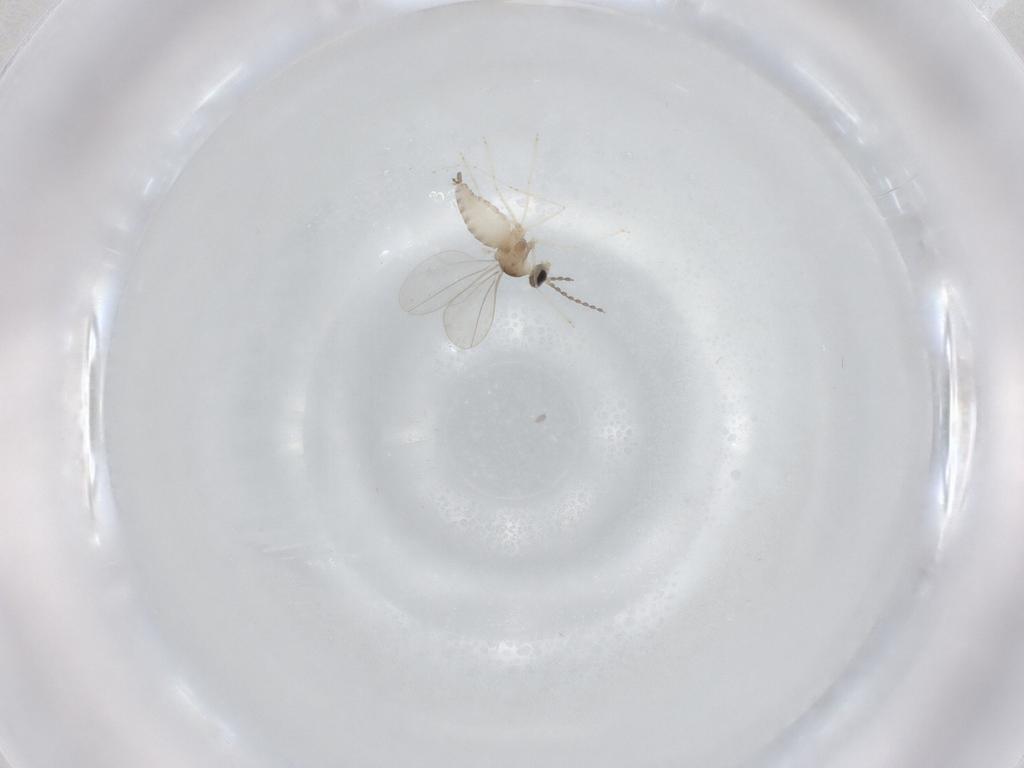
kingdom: Animalia
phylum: Arthropoda
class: Insecta
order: Diptera
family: Cecidomyiidae
